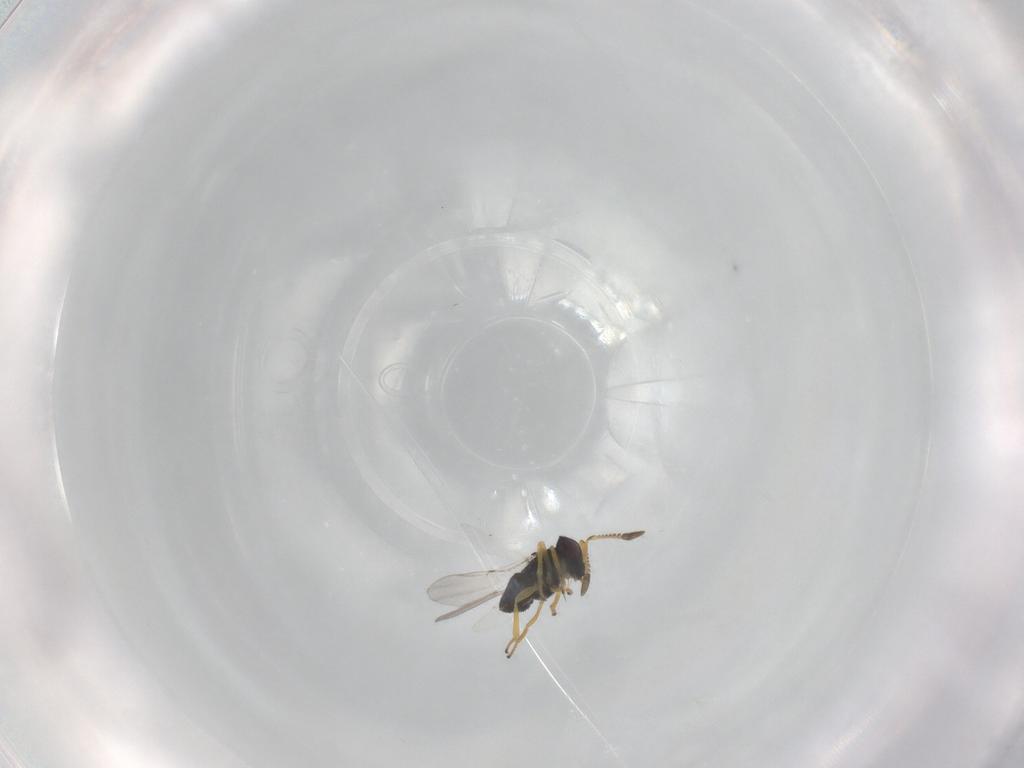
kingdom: Animalia
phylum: Arthropoda
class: Insecta
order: Hymenoptera
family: Encyrtidae
